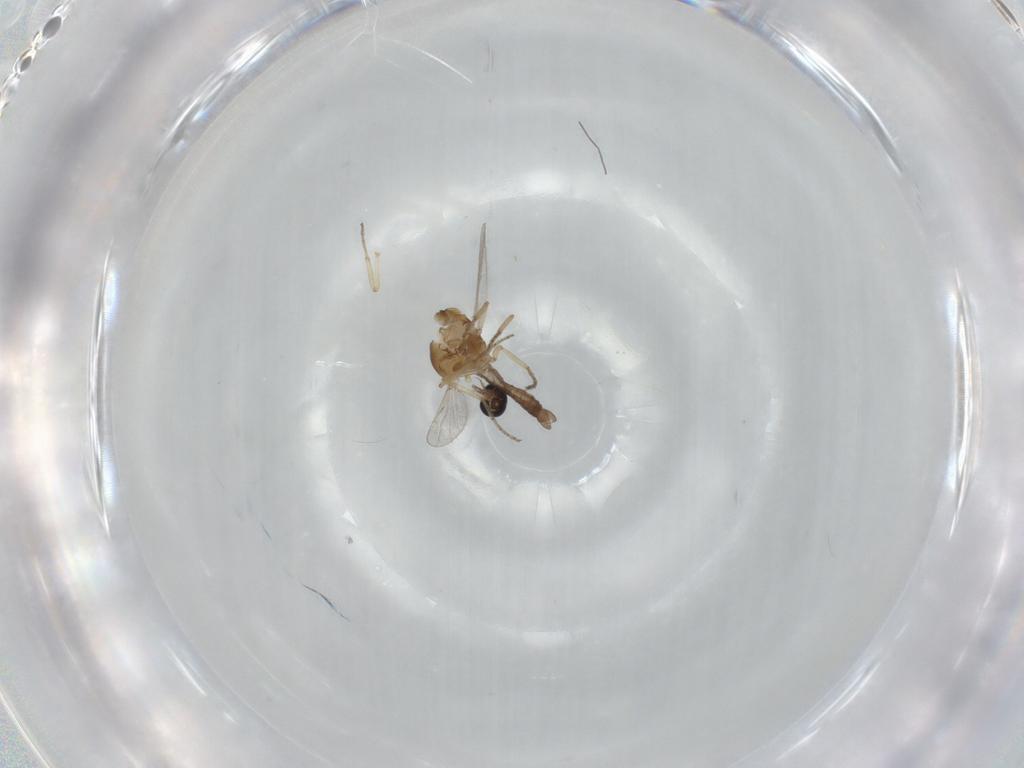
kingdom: Animalia
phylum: Arthropoda
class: Insecta
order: Diptera
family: Ceratopogonidae
